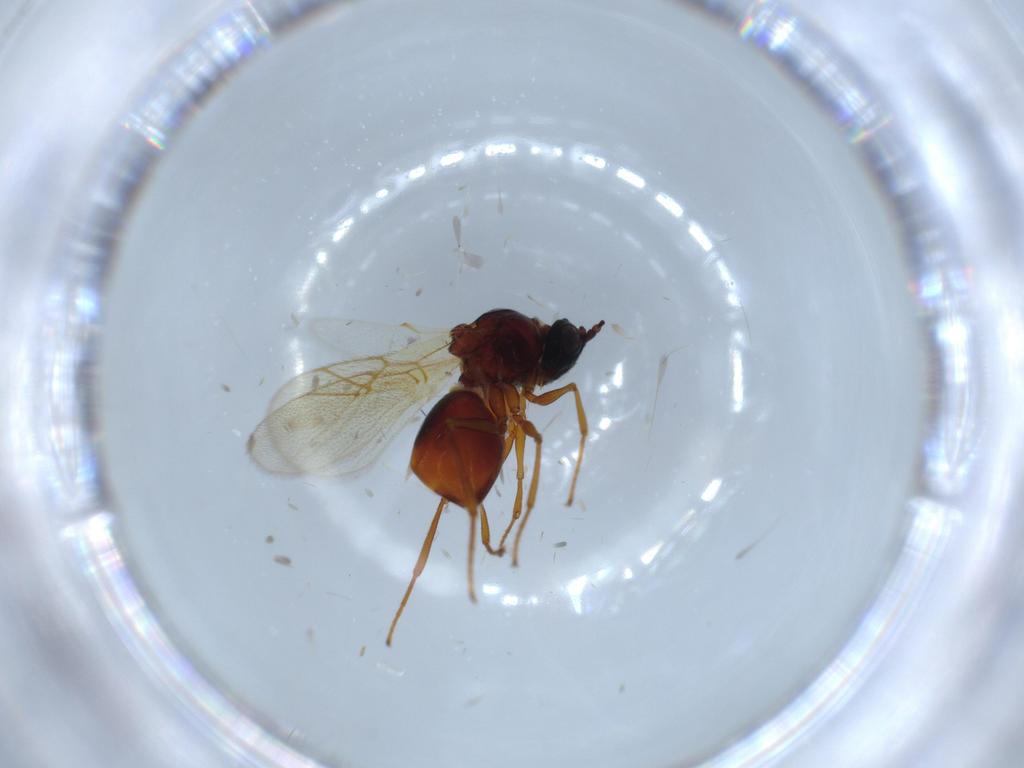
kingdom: Animalia
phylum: Arthropoda
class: Insecta
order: Hymenoptera
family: Figitidae
